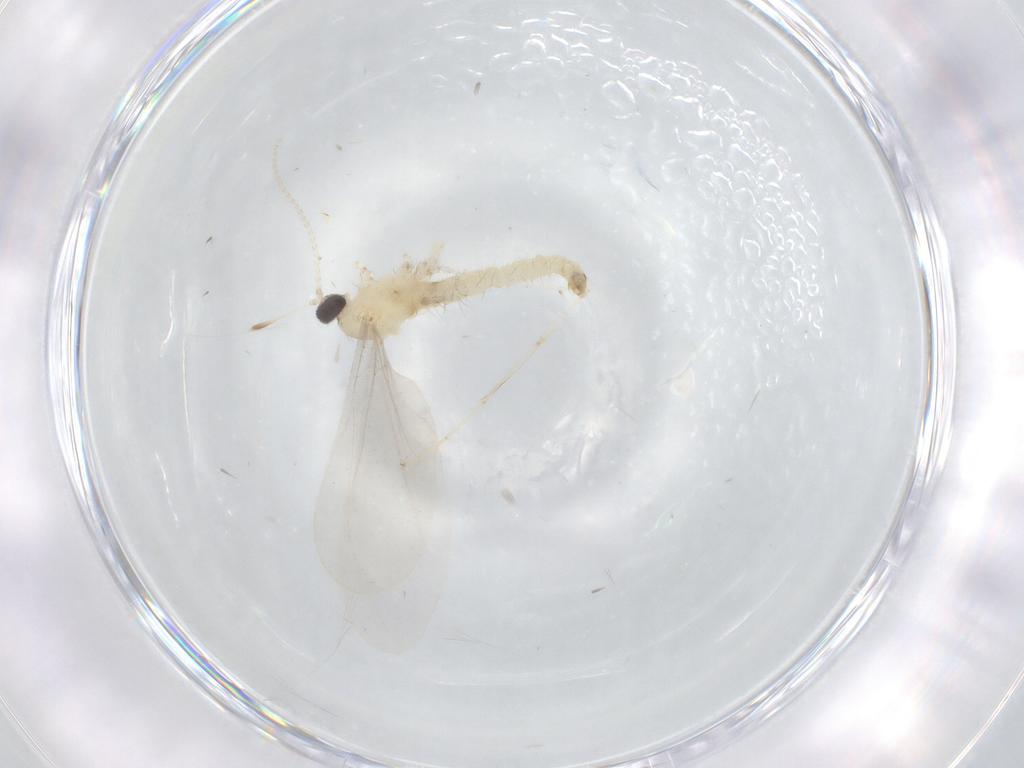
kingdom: Animalia
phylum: Arthropoda
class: Insecta
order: Diptera
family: Cecidomyiidae
